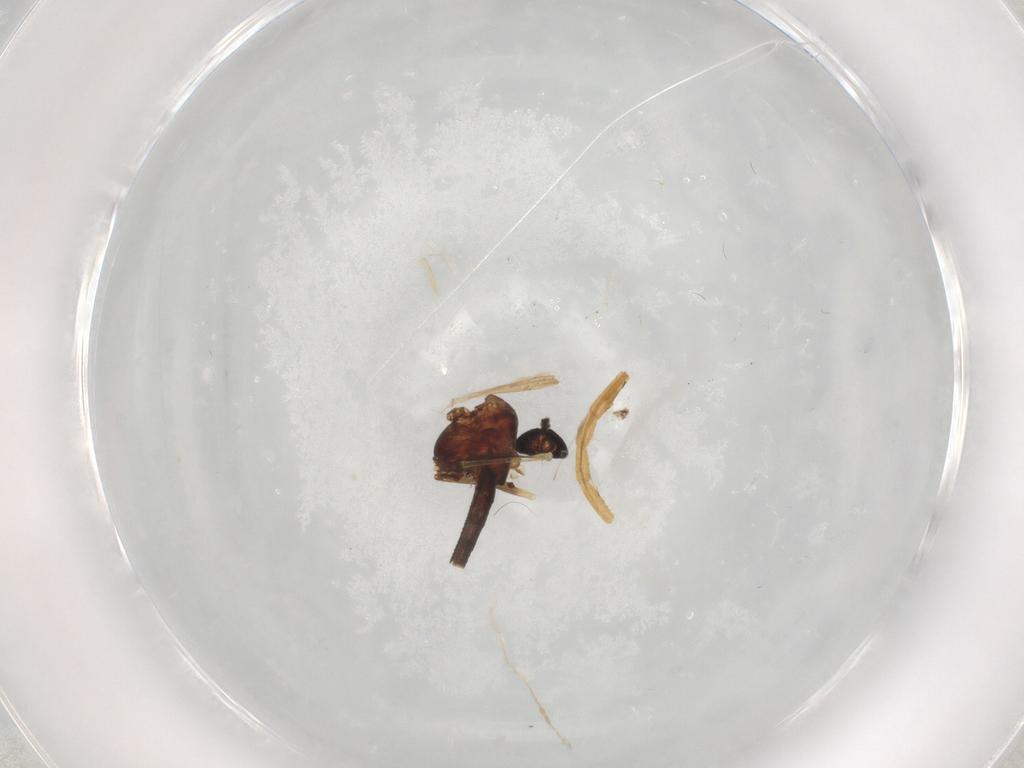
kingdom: Animalia
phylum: Arthropoda
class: Insecta
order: Diptera
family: Chironomidae
